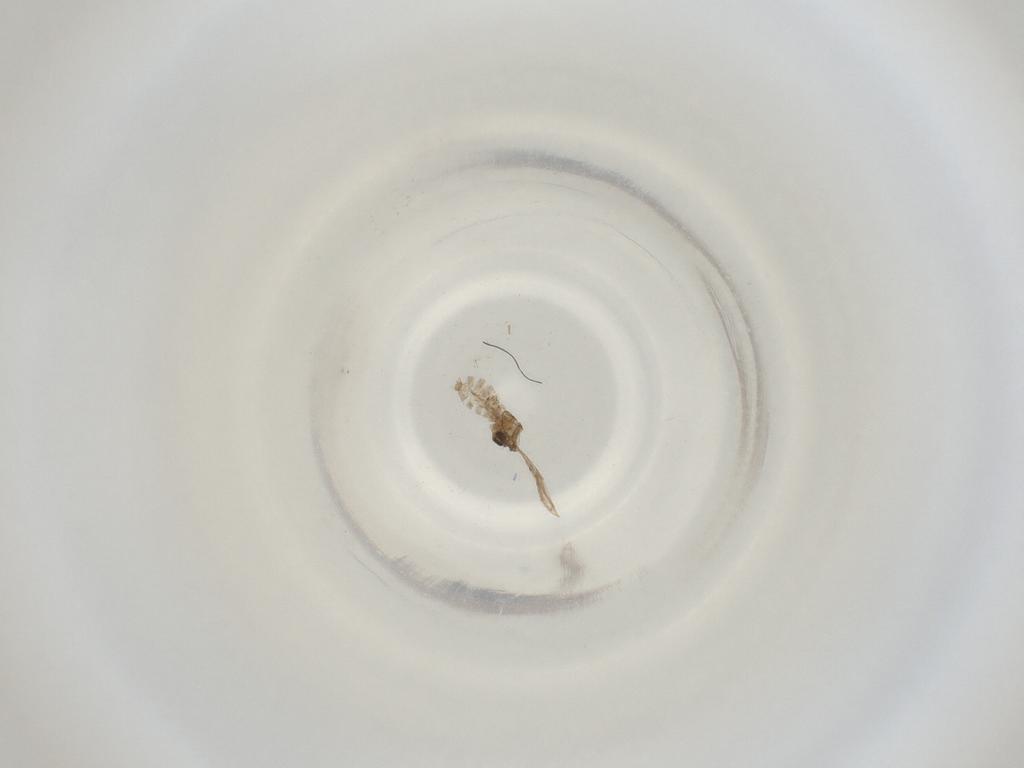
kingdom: Animalia
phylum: Arthropoda
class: Insecta
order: Diptera
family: Cecidomyiidae
